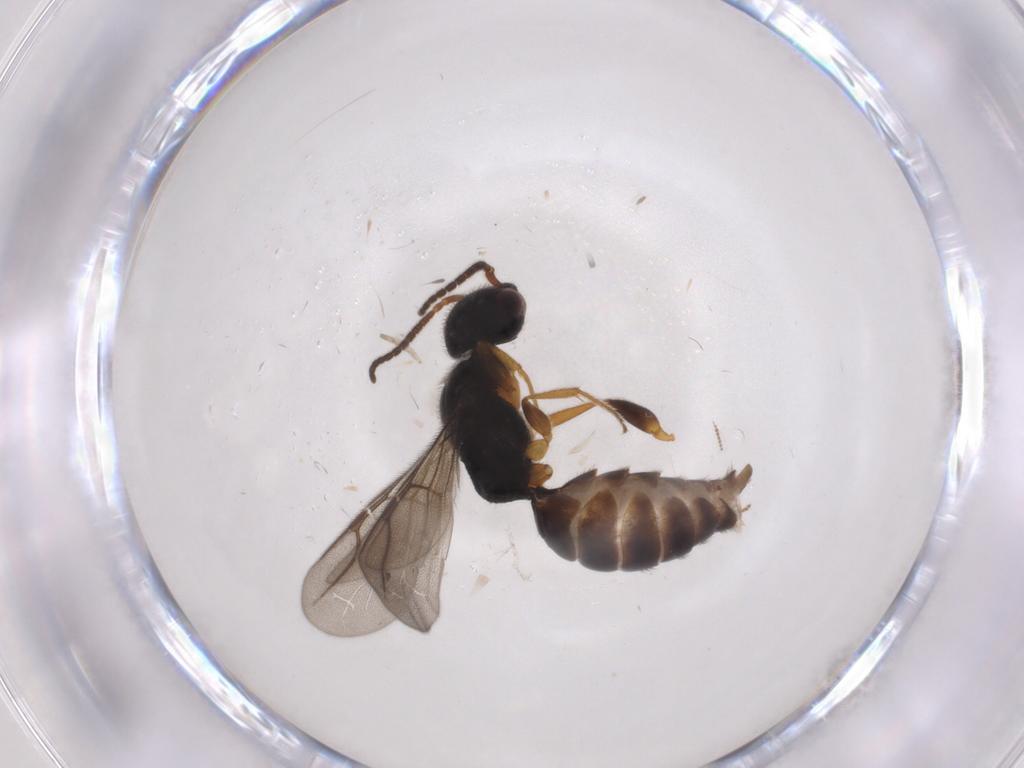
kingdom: Animalia
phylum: Arthropoda
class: Insecta
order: Hymenoptera
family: Bethylidae
